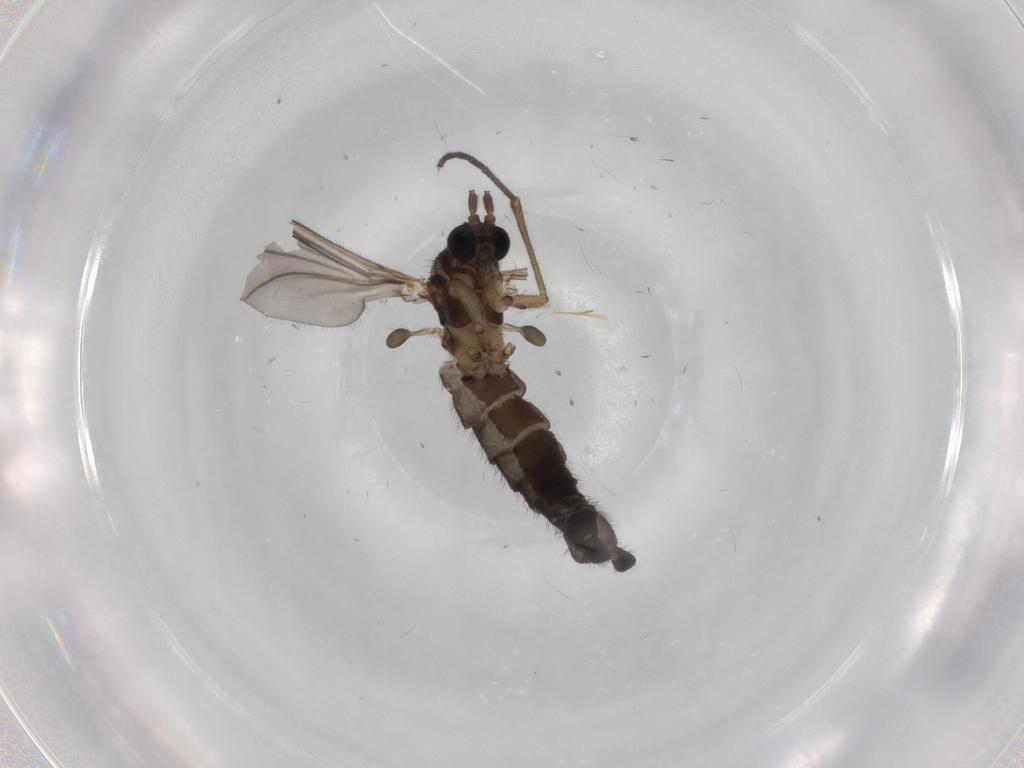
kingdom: Animalia
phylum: Arthropoda
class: Insecta
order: Diptera
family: Sciaridae
